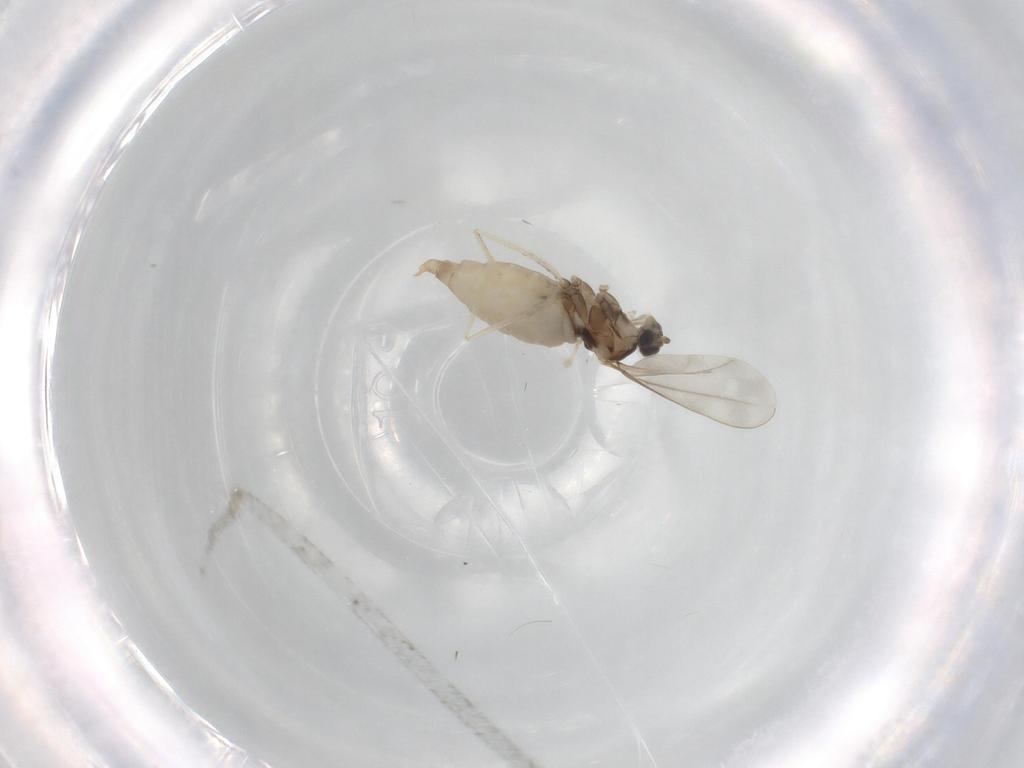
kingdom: Animalia
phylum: Arthropoda
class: Insecta
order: Diptera
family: Cecidomyiidae
